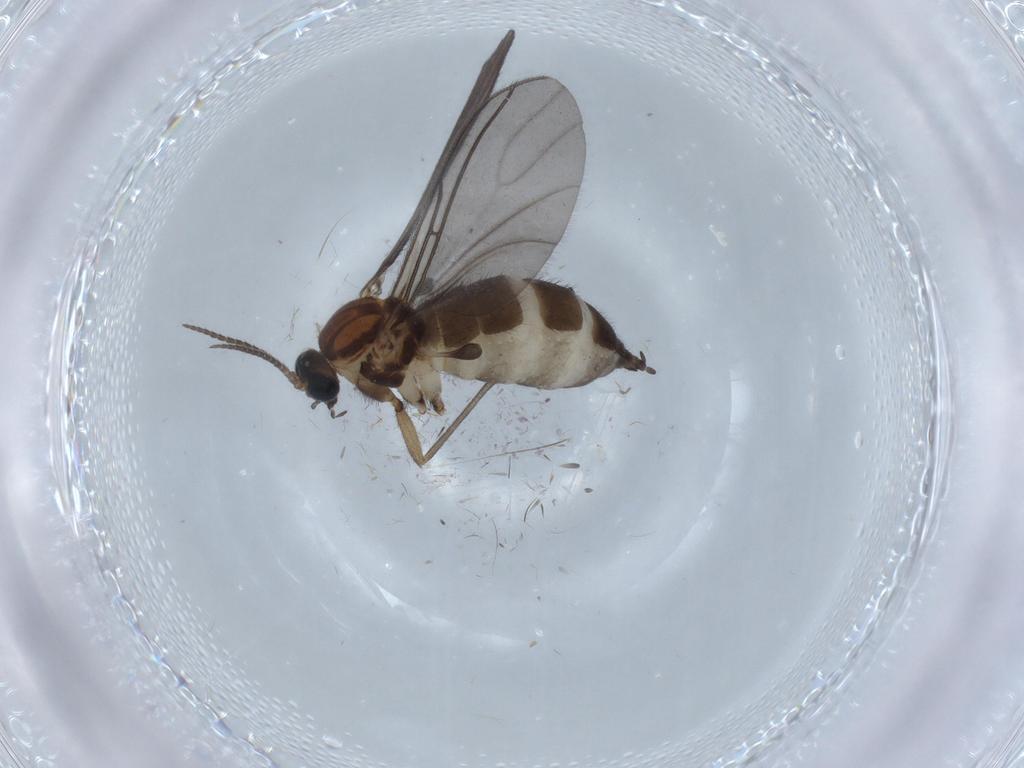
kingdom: Animalia
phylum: Arthropoda
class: Insecta
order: Diptera
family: Sciaridae
